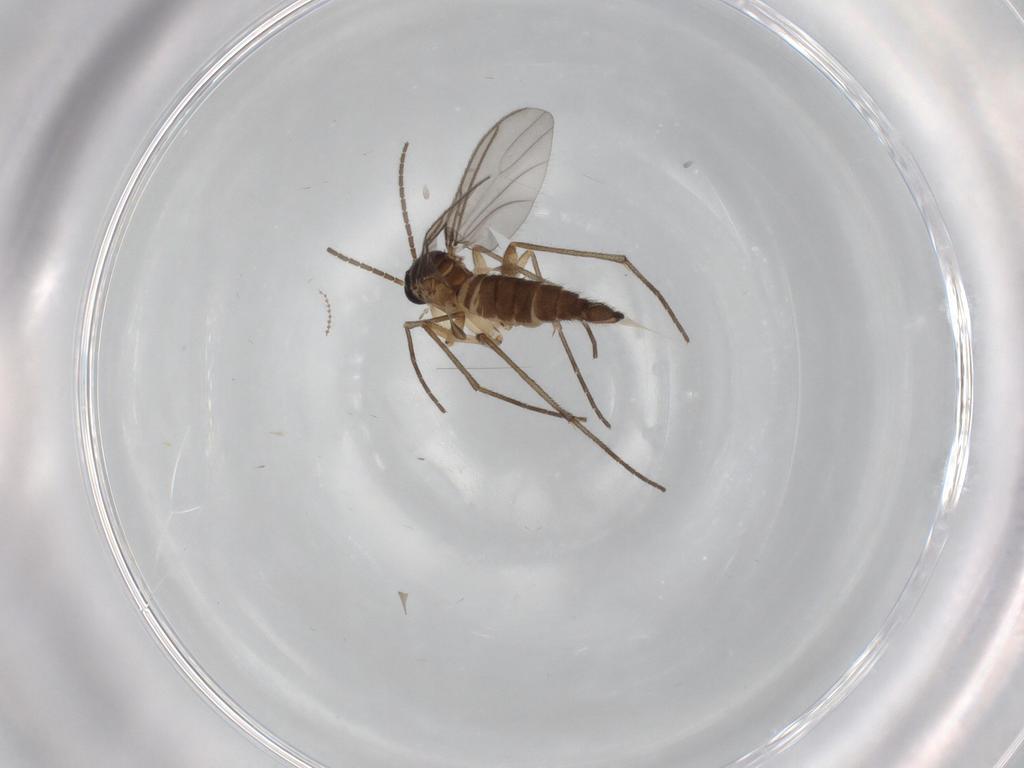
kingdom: Animalia
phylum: Arthropoda
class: Insecta
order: Diptera
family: Sciaridae
